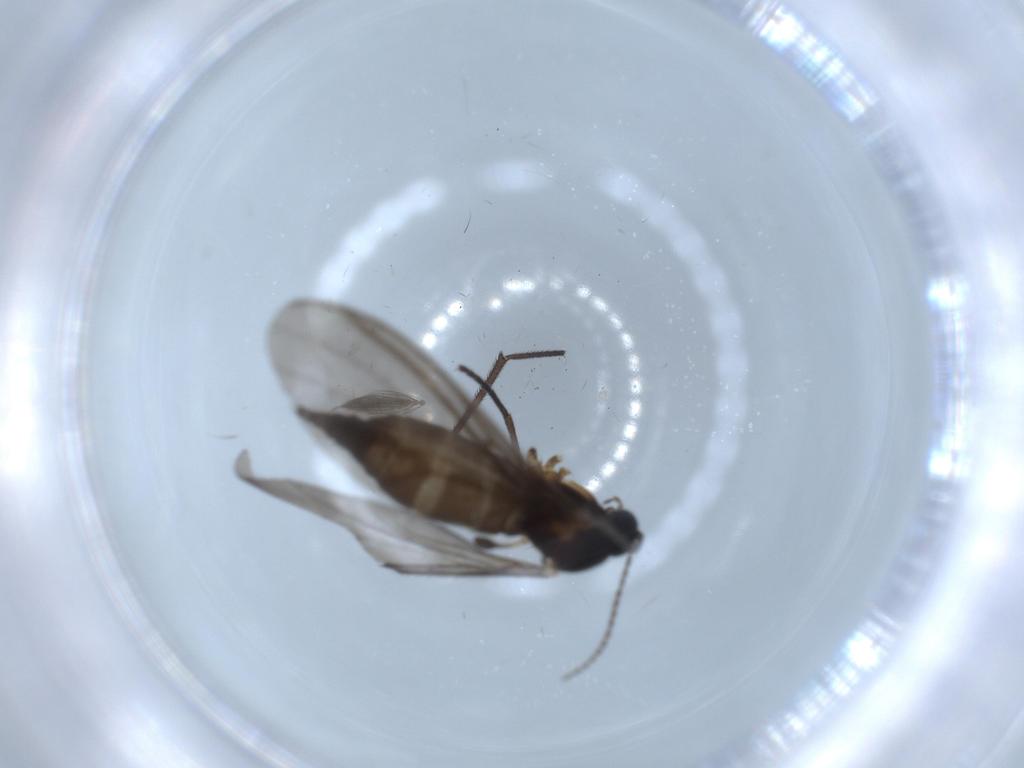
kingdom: Animalia
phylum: Arthropoda
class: Insecta
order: Diptera
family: Sciaridae
